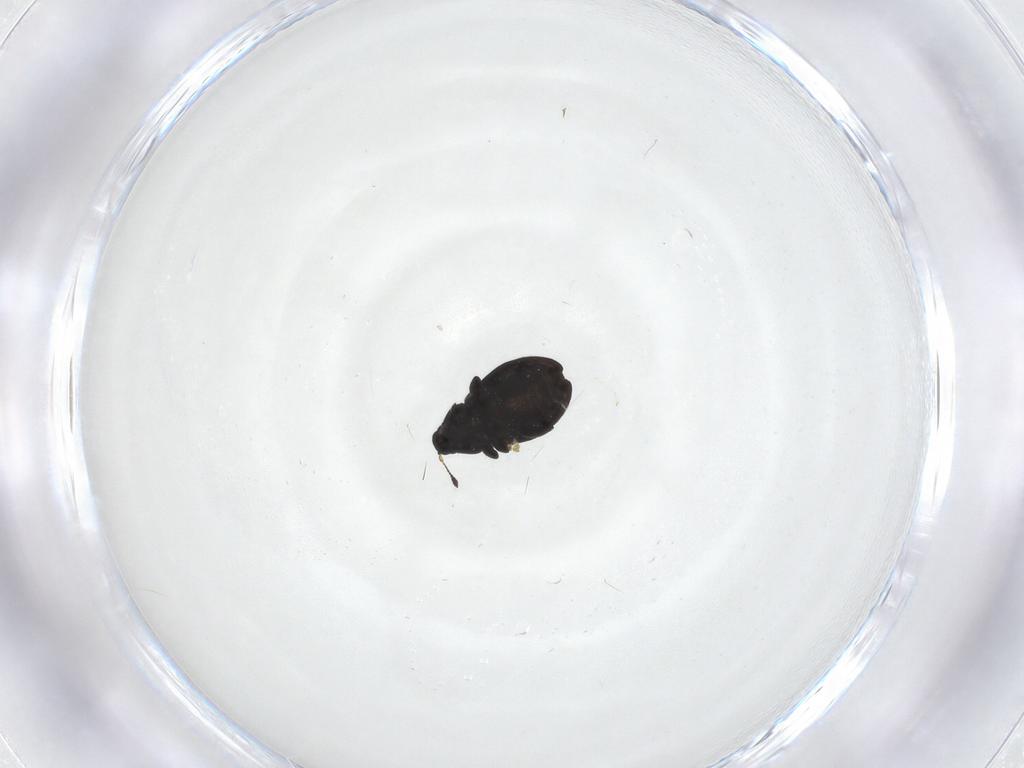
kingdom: Animalia
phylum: Arthropoda
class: Insecta
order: Coleoptera
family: Curculionidae
